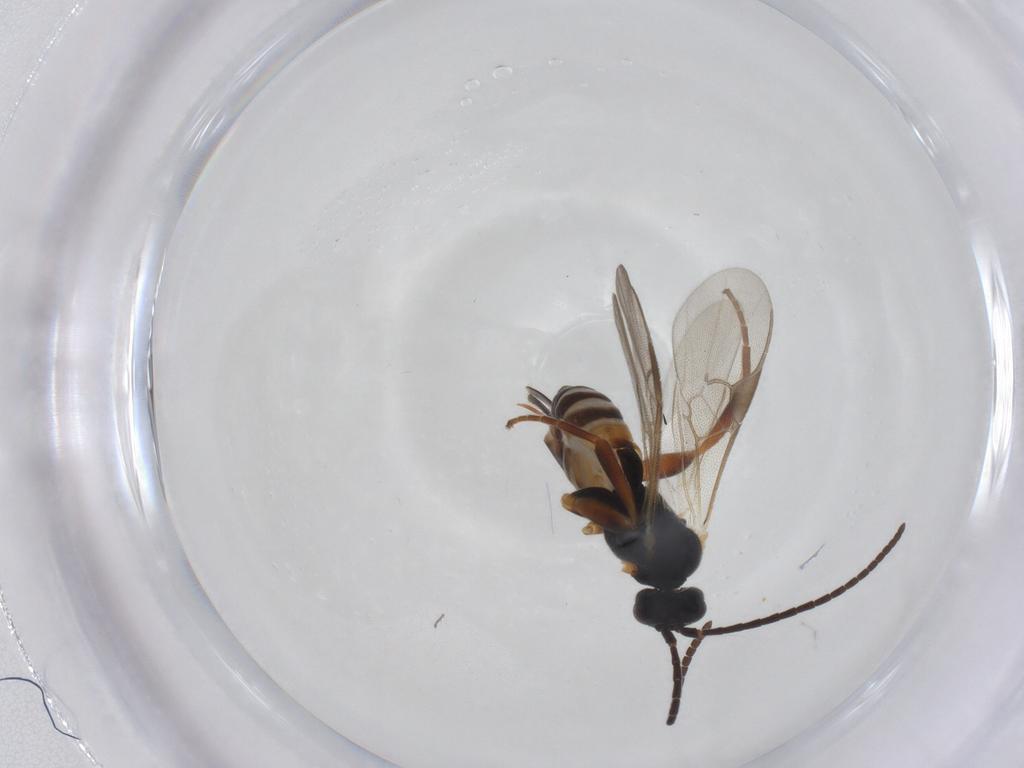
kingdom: Animalia
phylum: Arthropoda
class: Insecta
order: Hymenoptera
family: Braconidae
